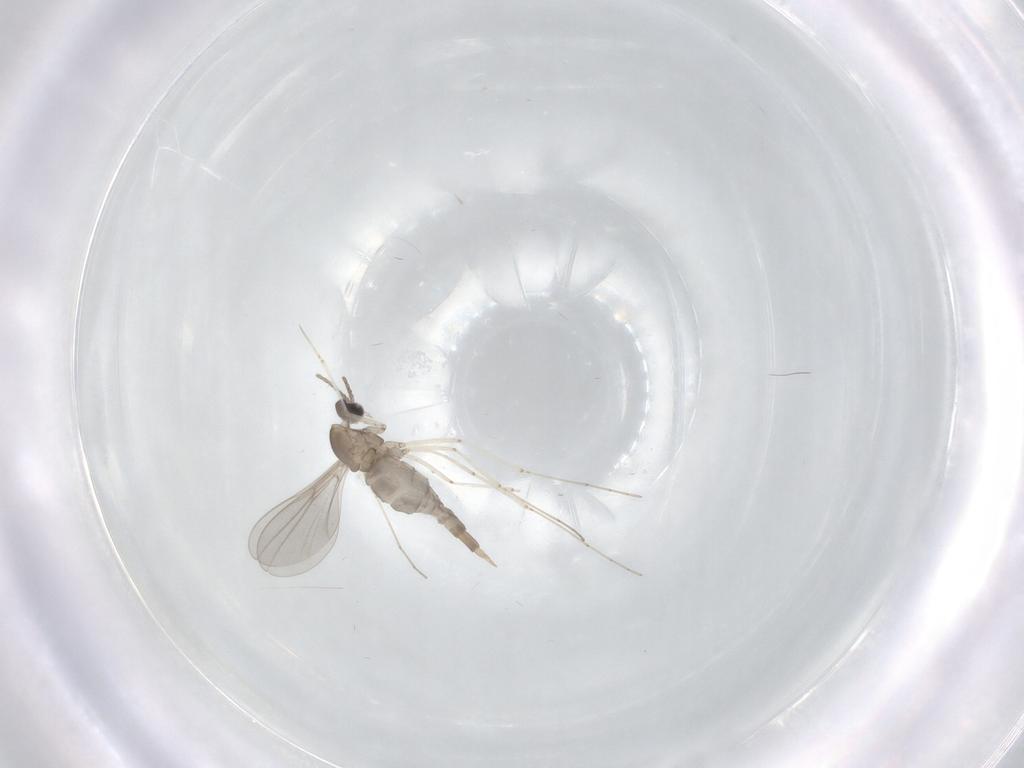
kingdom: Animalia
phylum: Arthropoda
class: Insecta
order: Diptera
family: Cecidomyiidae
